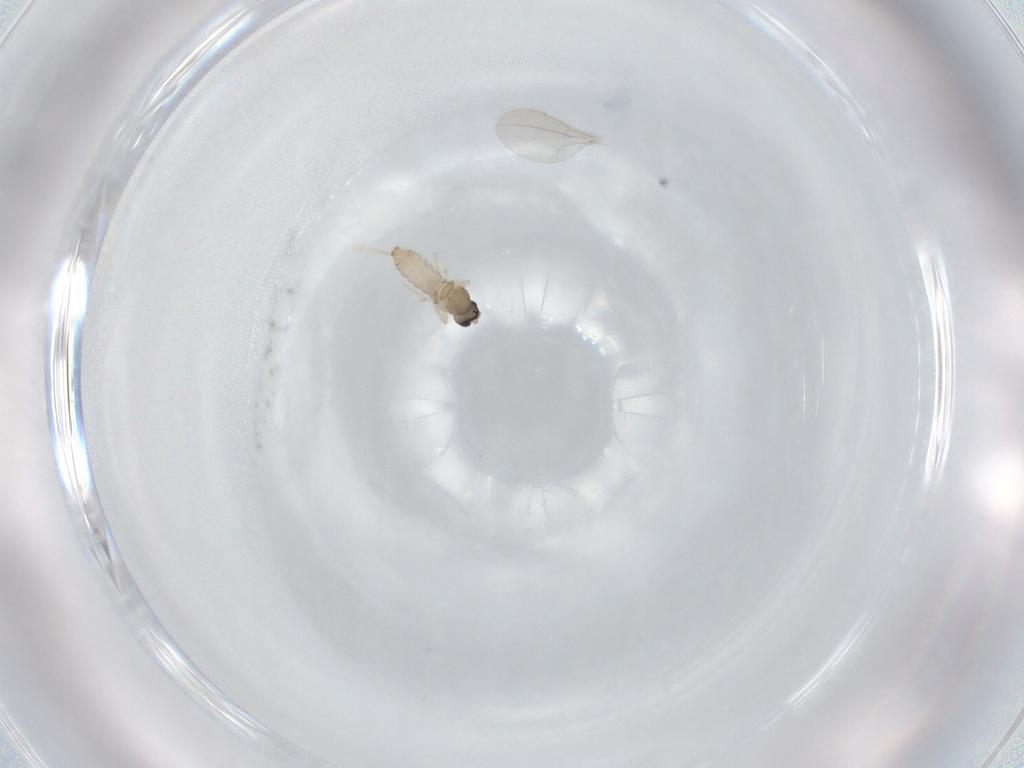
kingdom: Animalia
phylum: Arthropoda
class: Insecta
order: Diptera
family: Cecidomyiidae
